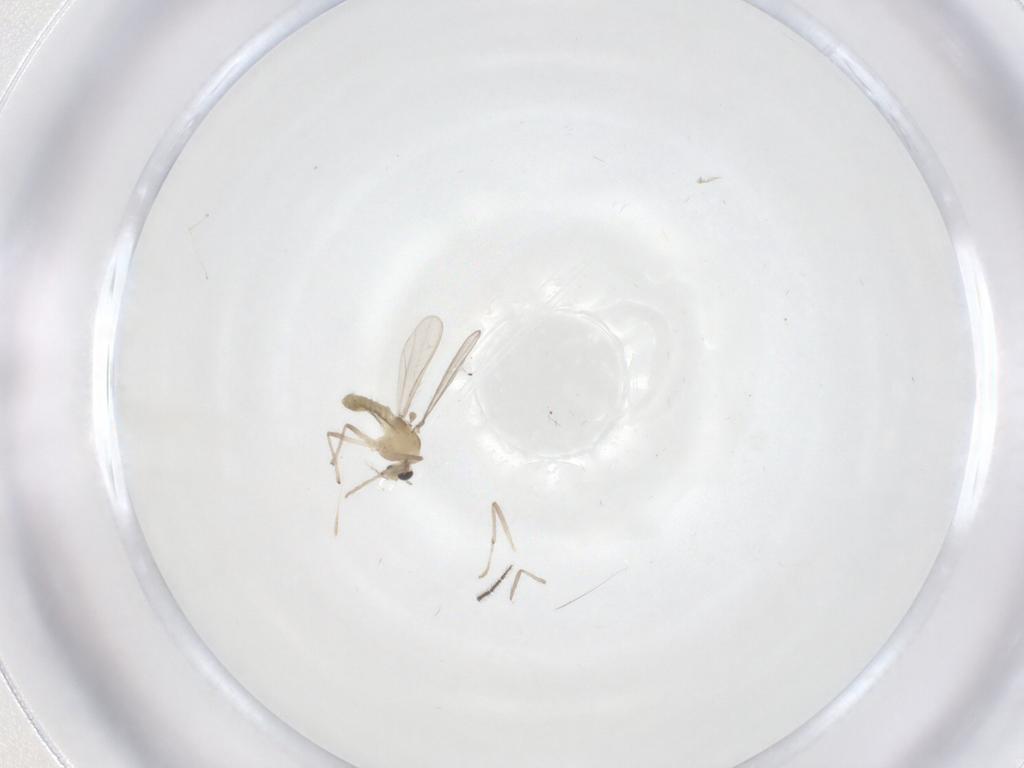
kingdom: Animalia
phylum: Arthropoda
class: Insecta
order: Diptera
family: Chironomidae
